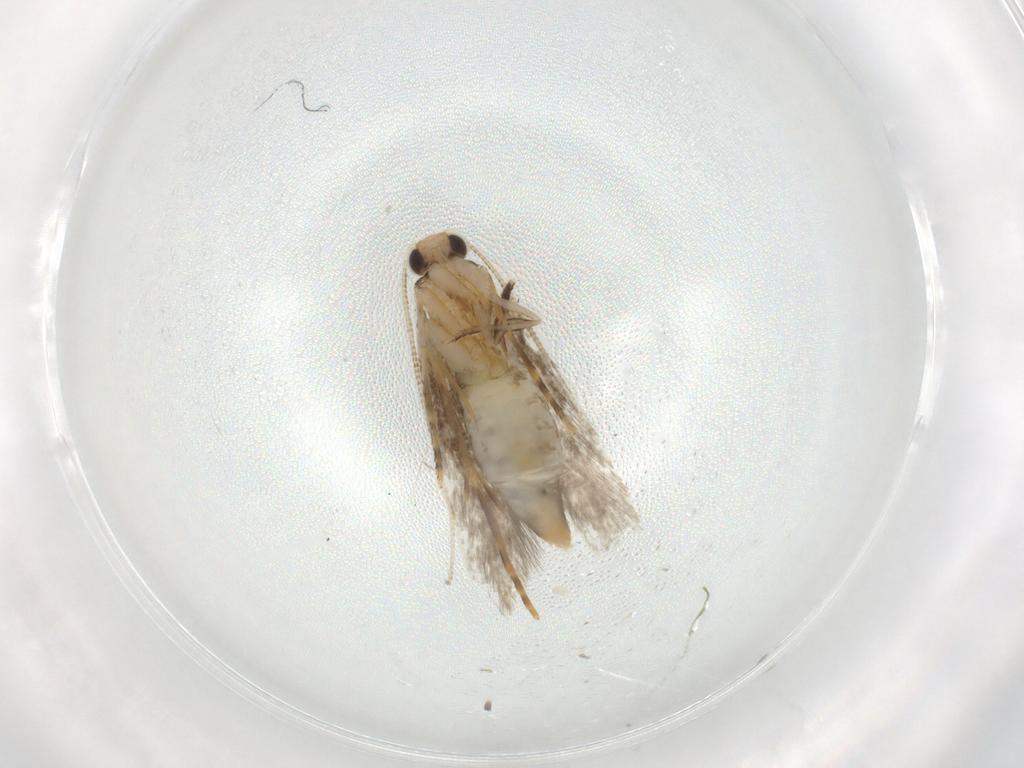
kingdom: Animalia
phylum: Arthropoda
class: Insecta
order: Lepidoptera
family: Tineidae
